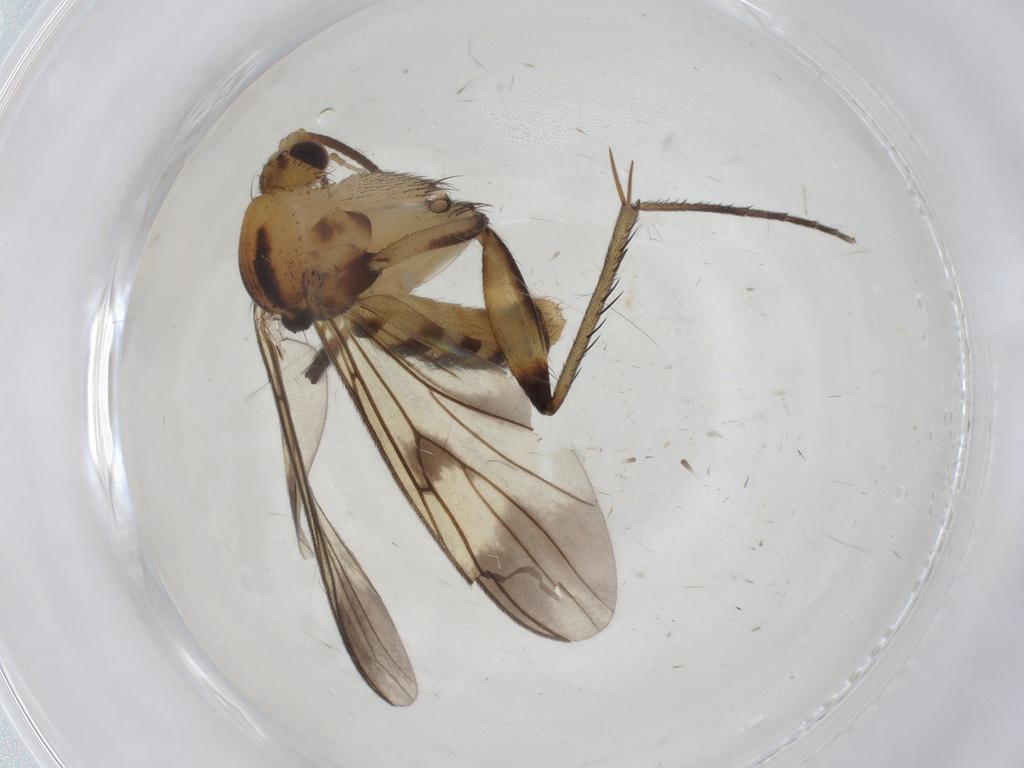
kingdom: Animalia
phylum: Arthropoda
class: Insecta
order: Diptera
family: Mycetophilidae
